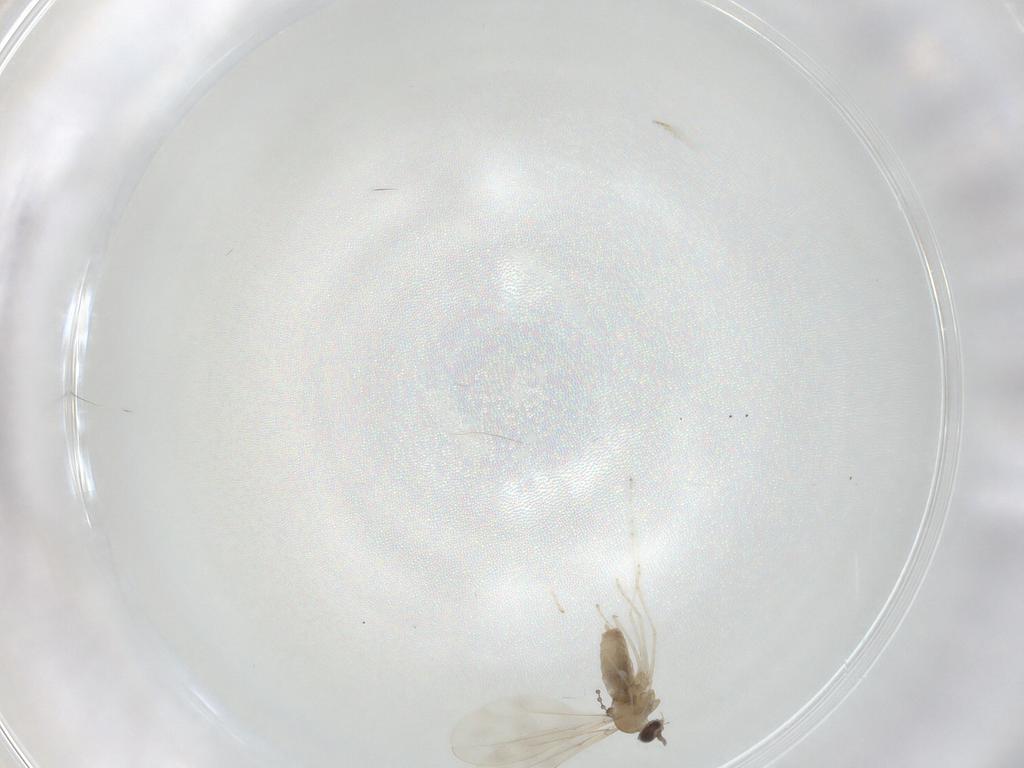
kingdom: Animalia
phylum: Arthropoda
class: Insecta
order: Diptera
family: Cecidomyiidae
